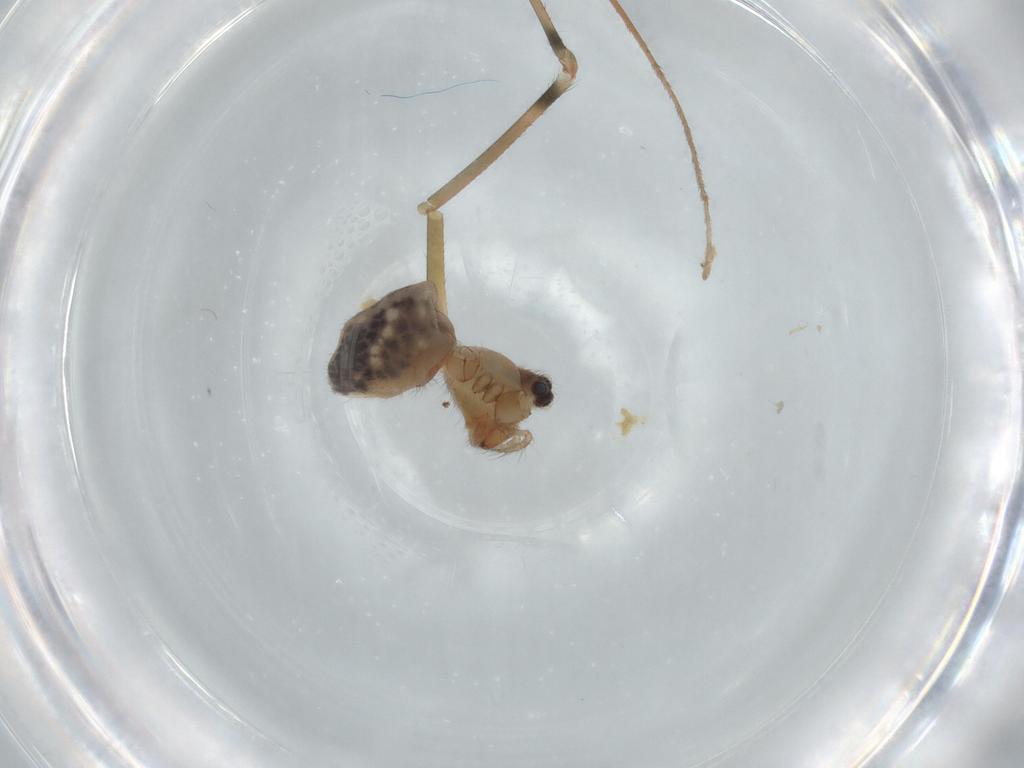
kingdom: Animalia
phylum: Arthropoda
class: Arachnida
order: Araneae
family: Pholcidae
